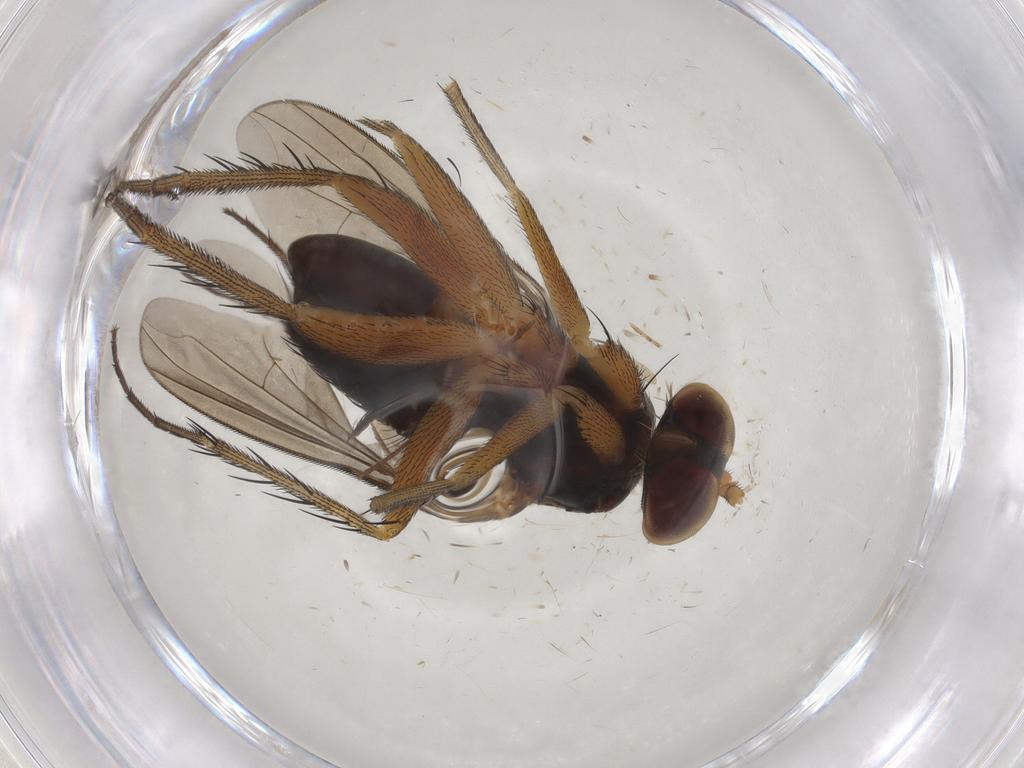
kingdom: Animalia
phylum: Arthropoda
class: Insecta
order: Diptera
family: Dolichopodidae
